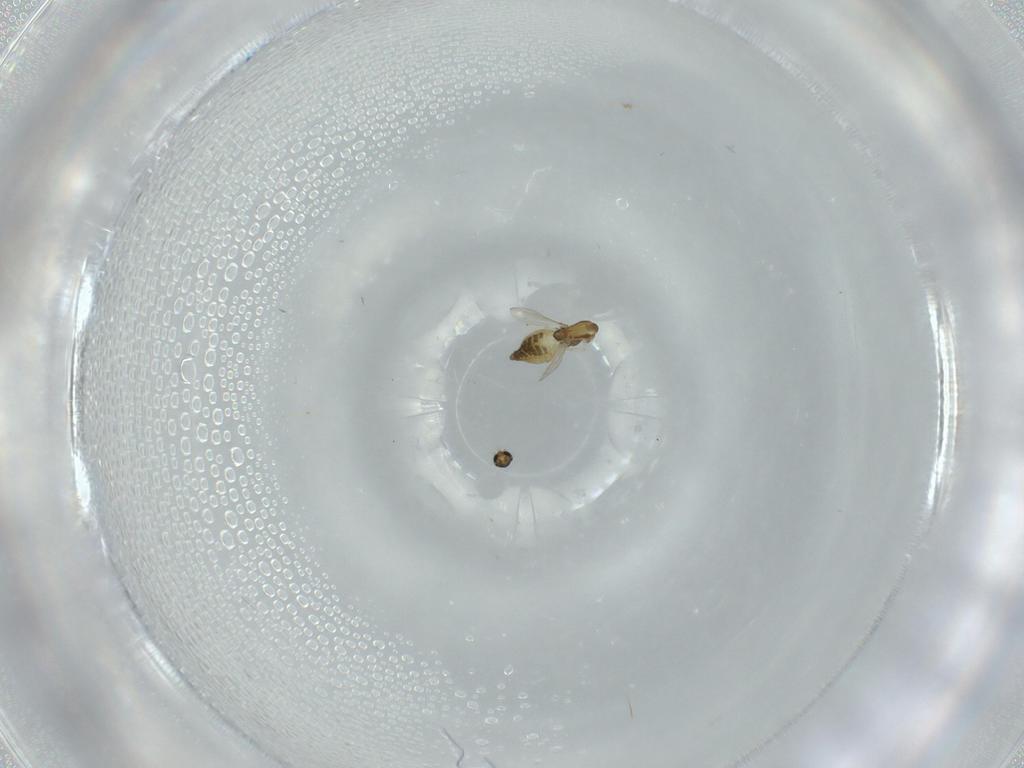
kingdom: Animalia
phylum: Arthropoda
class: Insecta
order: Diptera
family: Chironomidae
